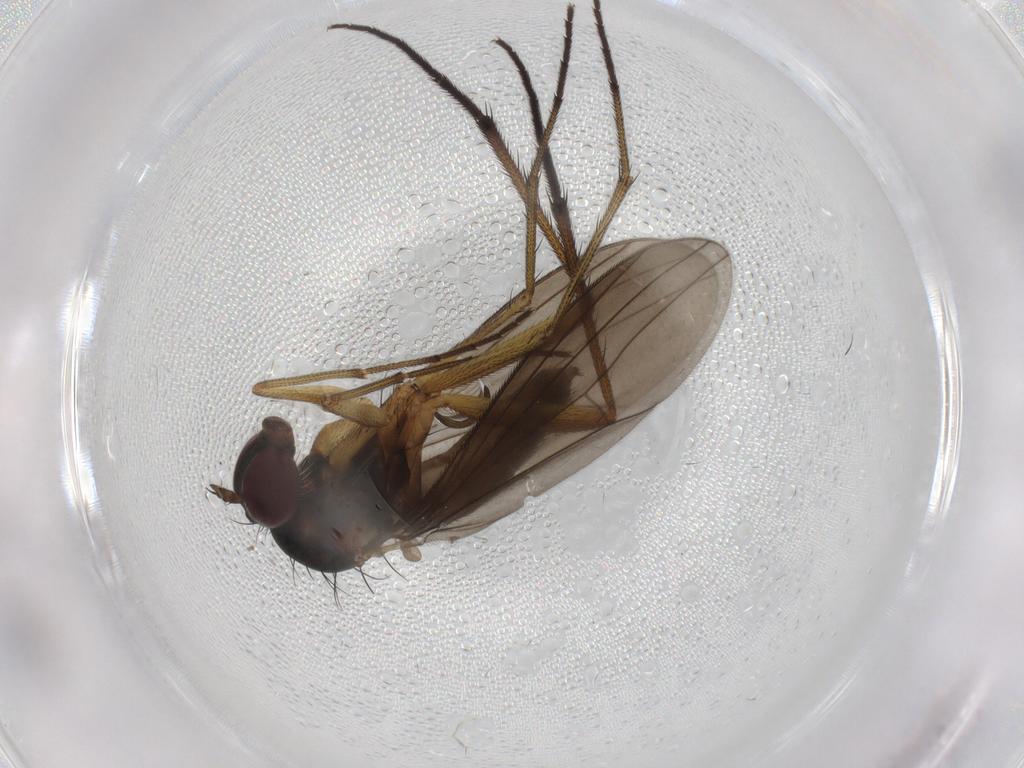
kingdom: Animalia
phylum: Arthropoda
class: Insecta
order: Diptera
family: Dolichopodidae
